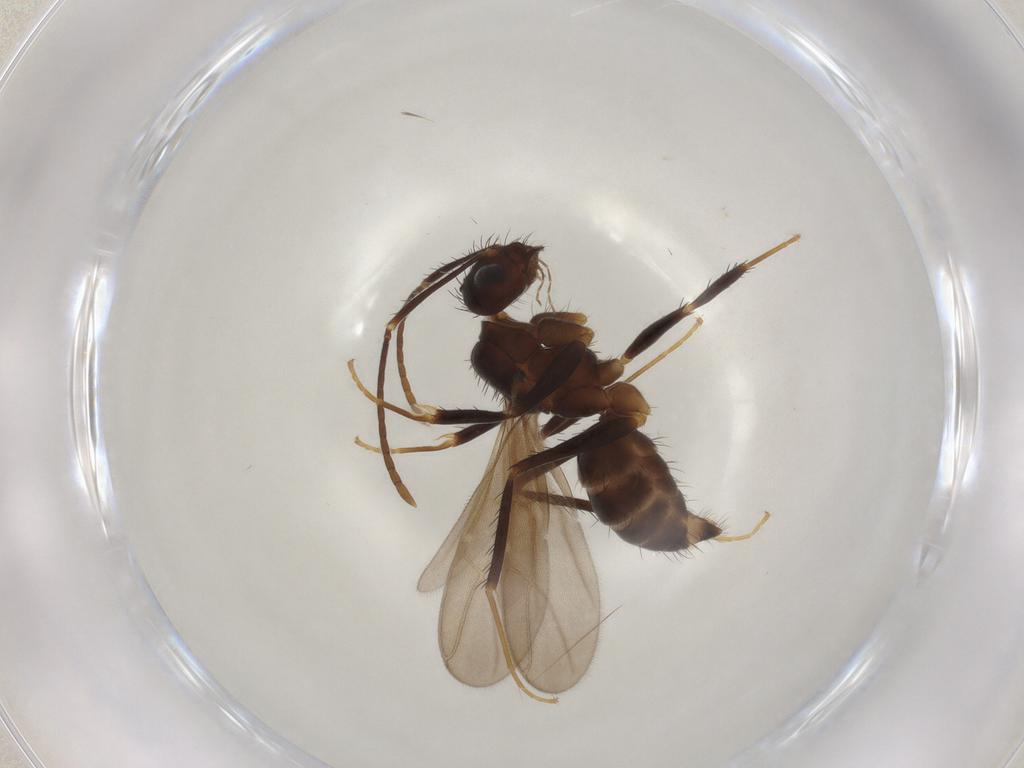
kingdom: Animalia
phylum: Arthropoda
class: Insecta
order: Hymenoptera
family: Formicidae
